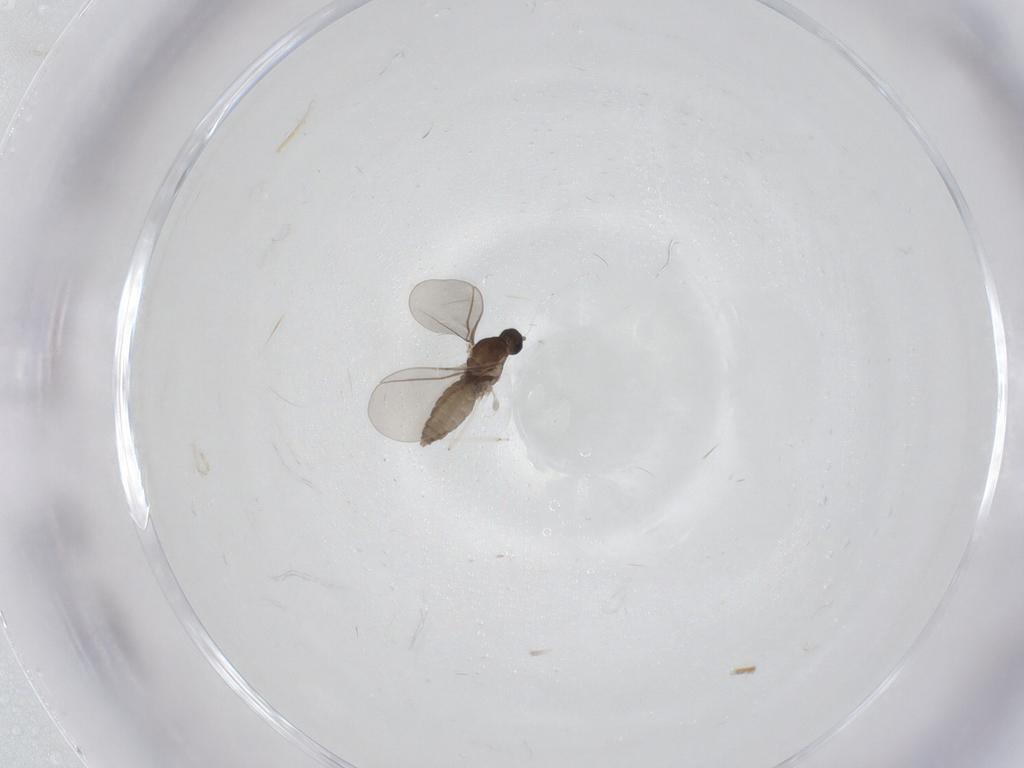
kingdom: Animalia
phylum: Arthropoda
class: Insecta
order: Diptera
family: Cecidomyiidae
